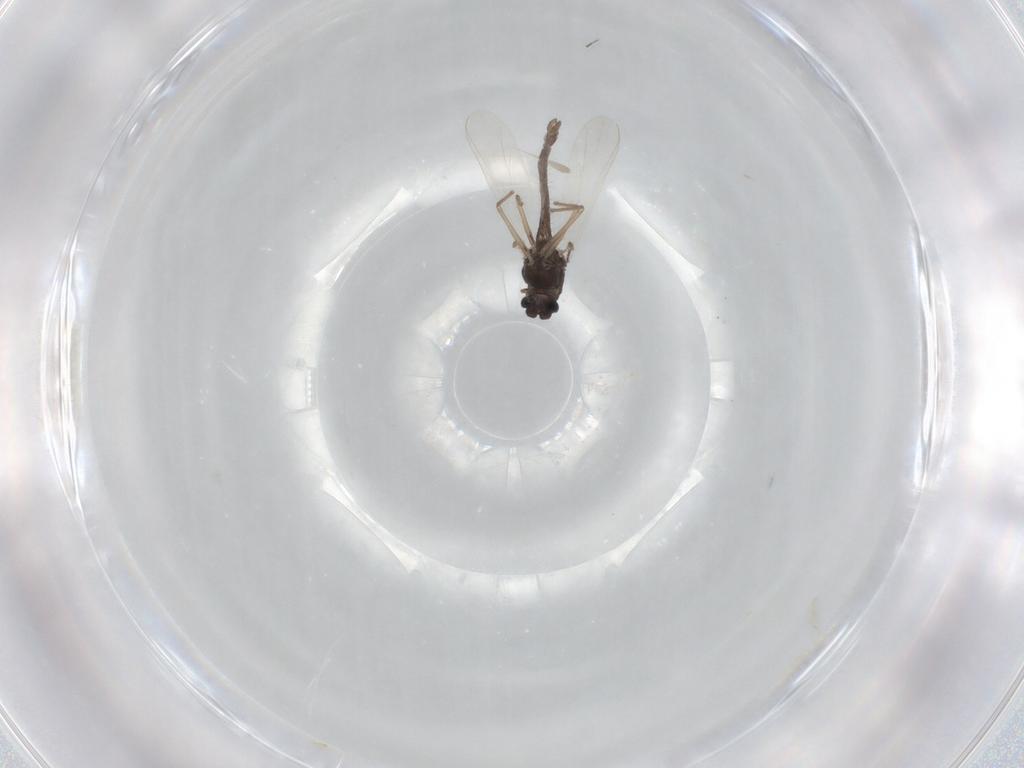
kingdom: Animalia
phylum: Arthropoda
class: Insecta
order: Diptera
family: Chironomidae
